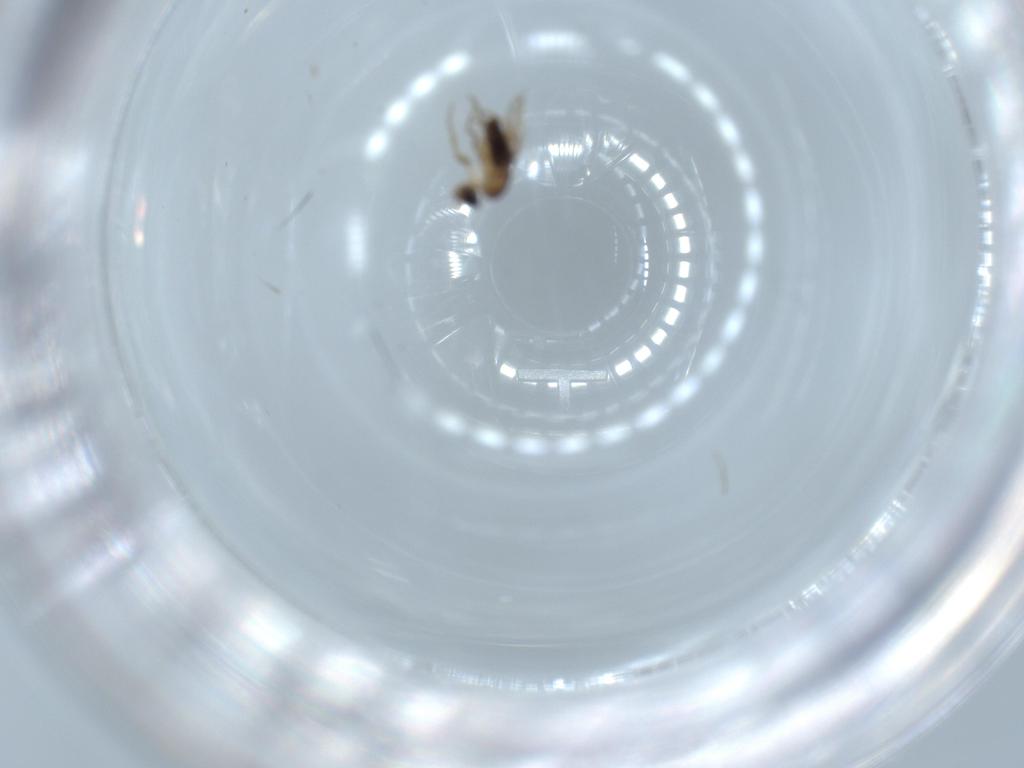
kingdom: Animalia
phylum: Arthropoda
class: Insecta
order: Diptera
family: Phoridae
